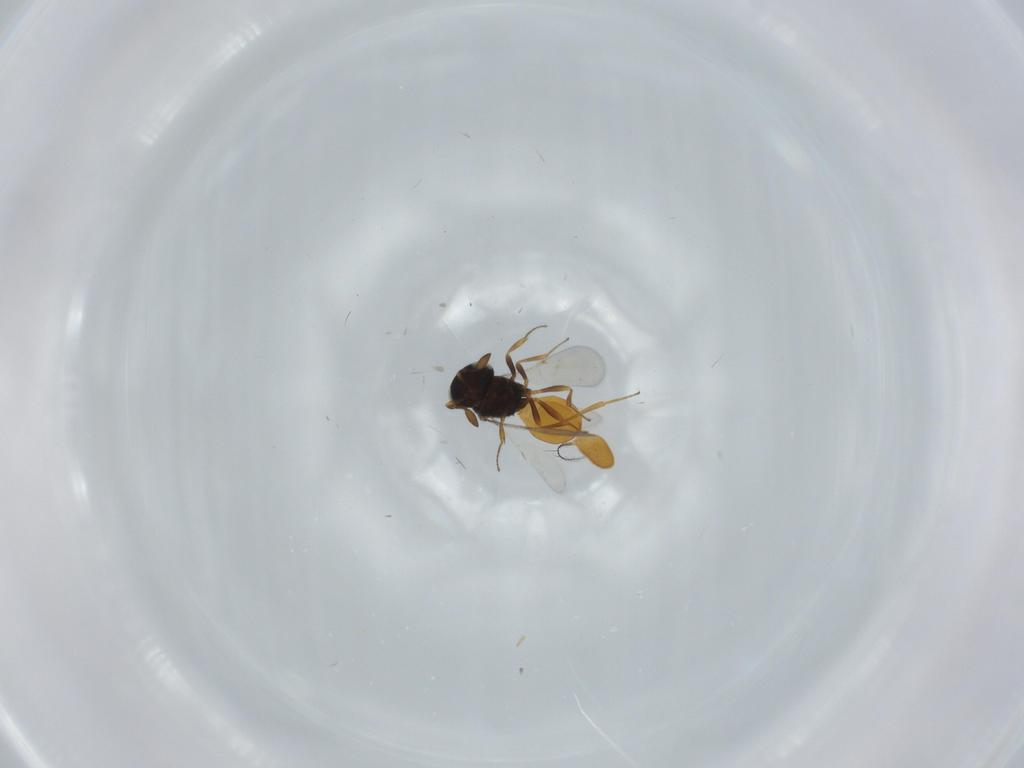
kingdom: Animalia
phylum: Arthropoda
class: Insecta
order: Hymenoptera
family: Scelionidae
